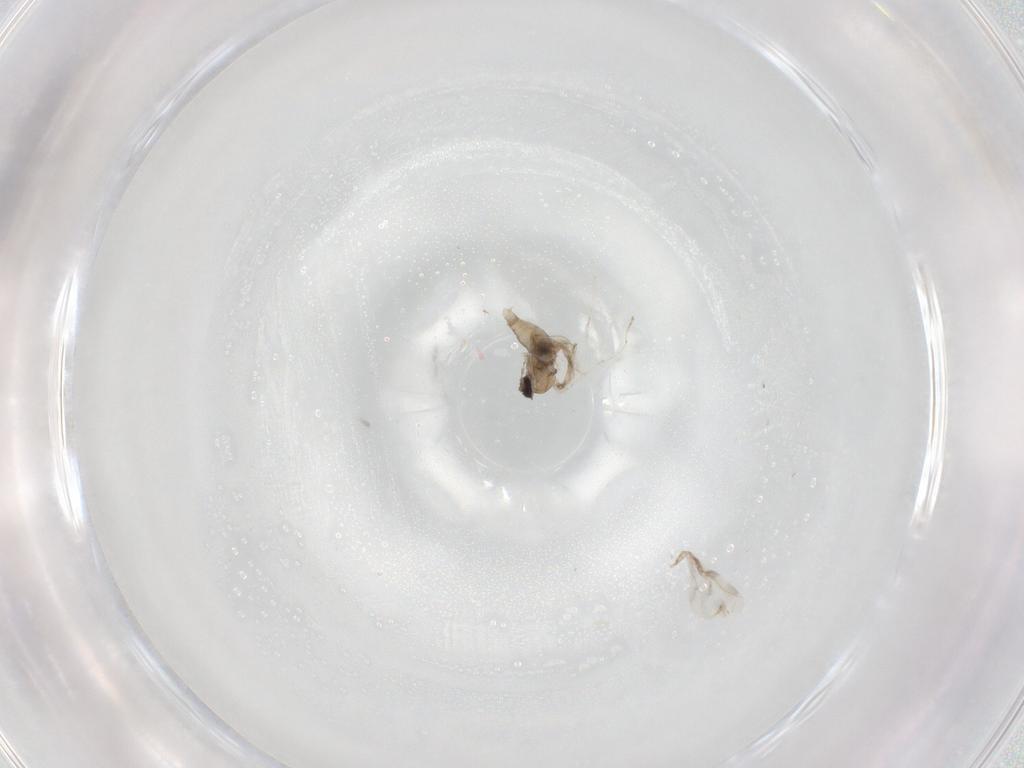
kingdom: Animalia
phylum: Arthropoda
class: Insecta
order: Diptera
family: Cecidomyiidae
